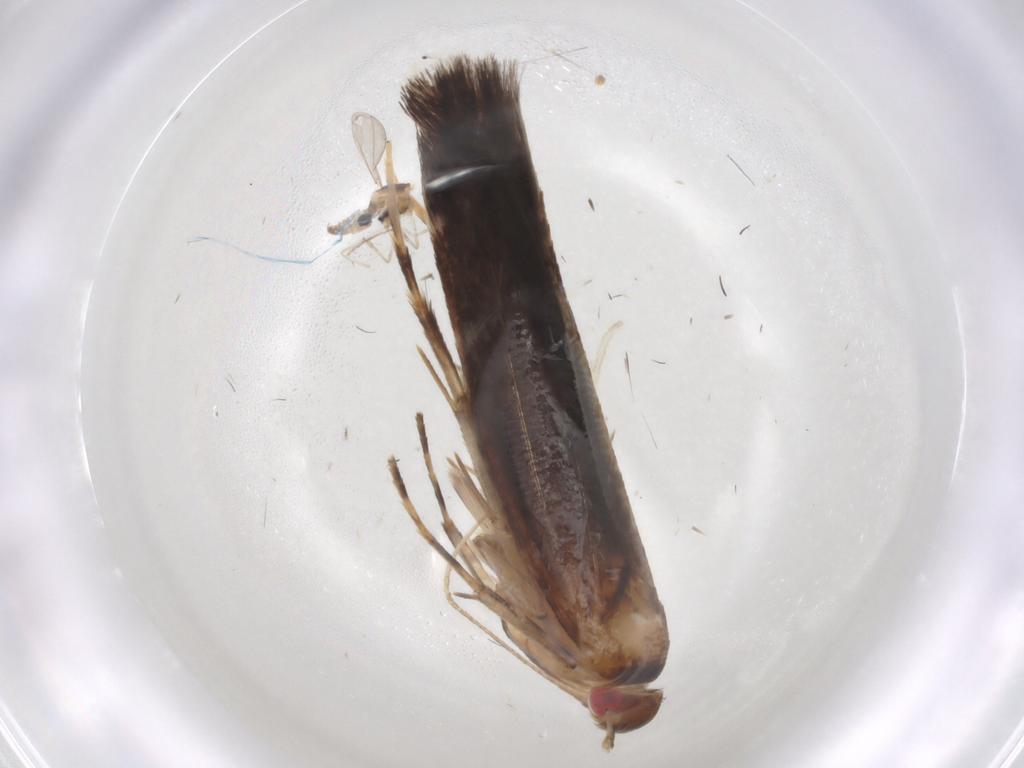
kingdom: Animalia
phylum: Arthropoda
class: Insecta
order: Lepidoptera
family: Cosmopterigidae
